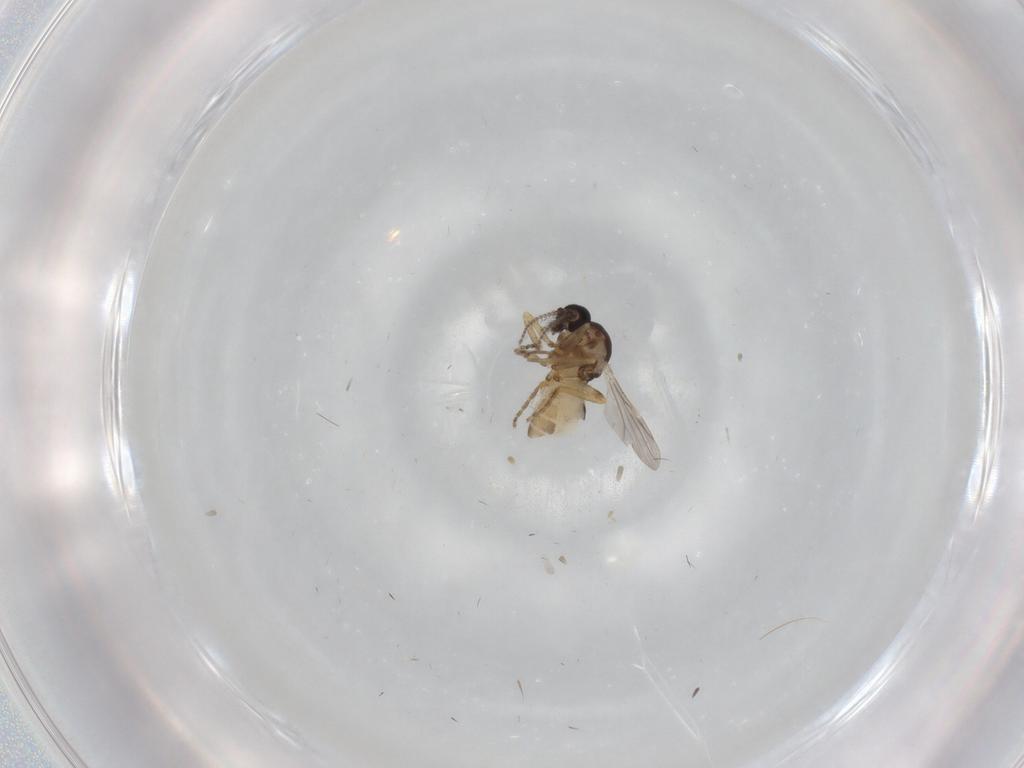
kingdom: Animalia
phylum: Arthropoda
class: Insecta
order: Diptera
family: Ceratopogonidae
